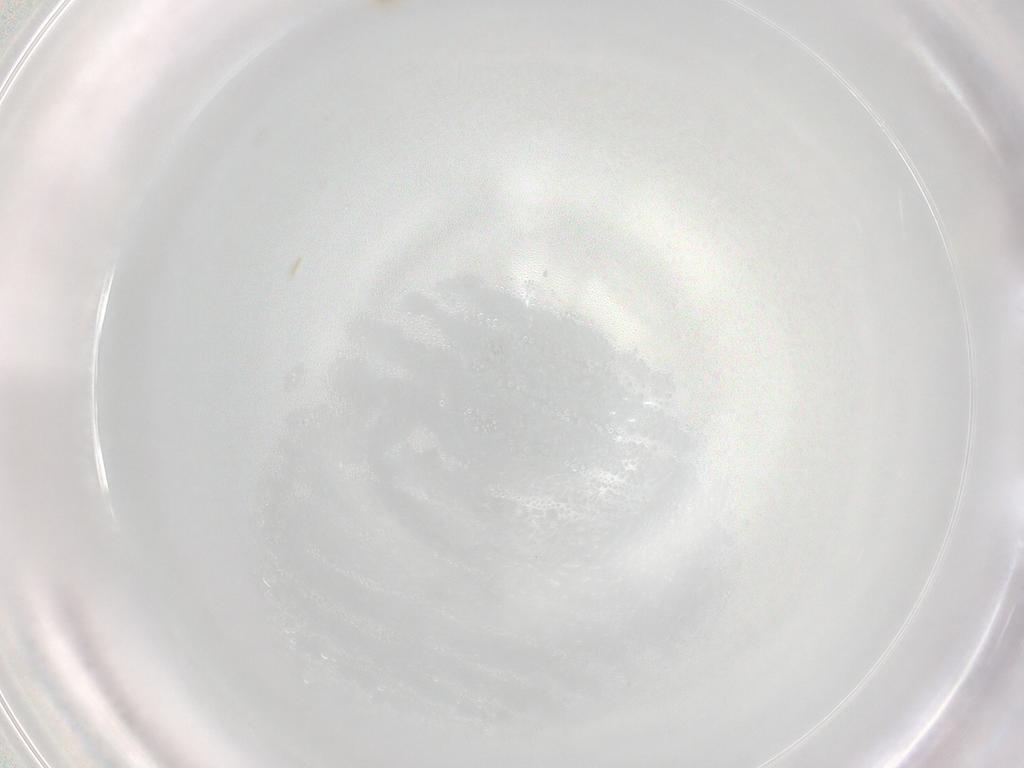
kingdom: Animalia
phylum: Arthropoda
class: Arachnida
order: Trombidiformes
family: Eupodidae
